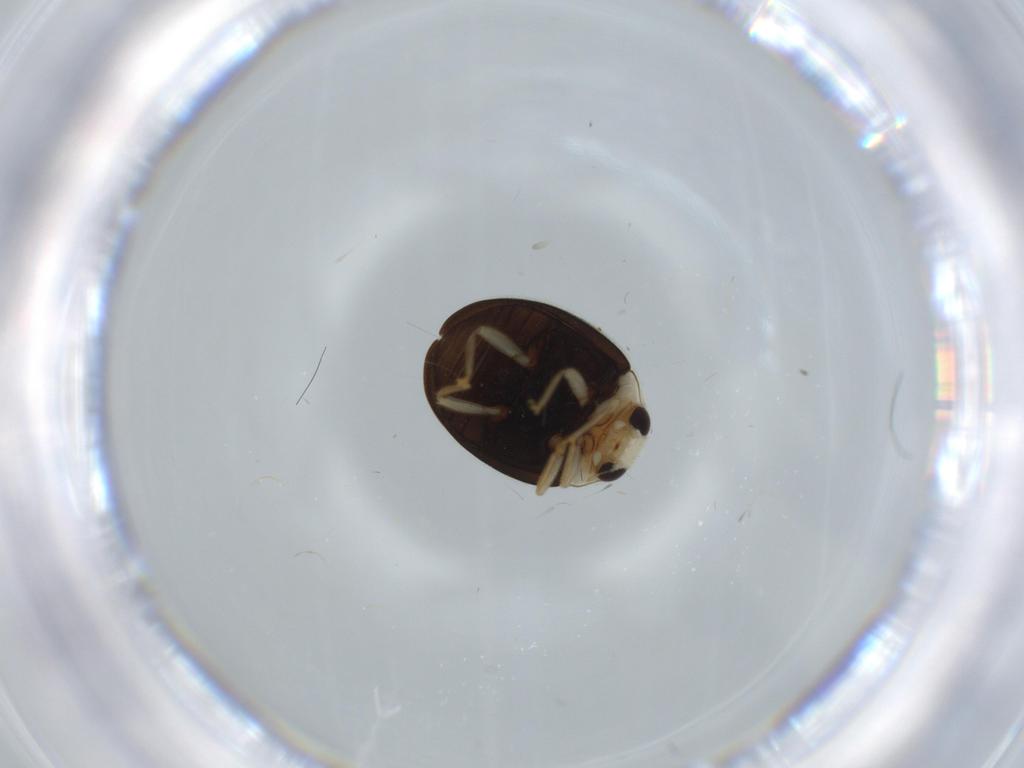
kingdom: Animalia
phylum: Arthropoda
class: Insecta
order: Coleoptera
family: Coccinellidae
